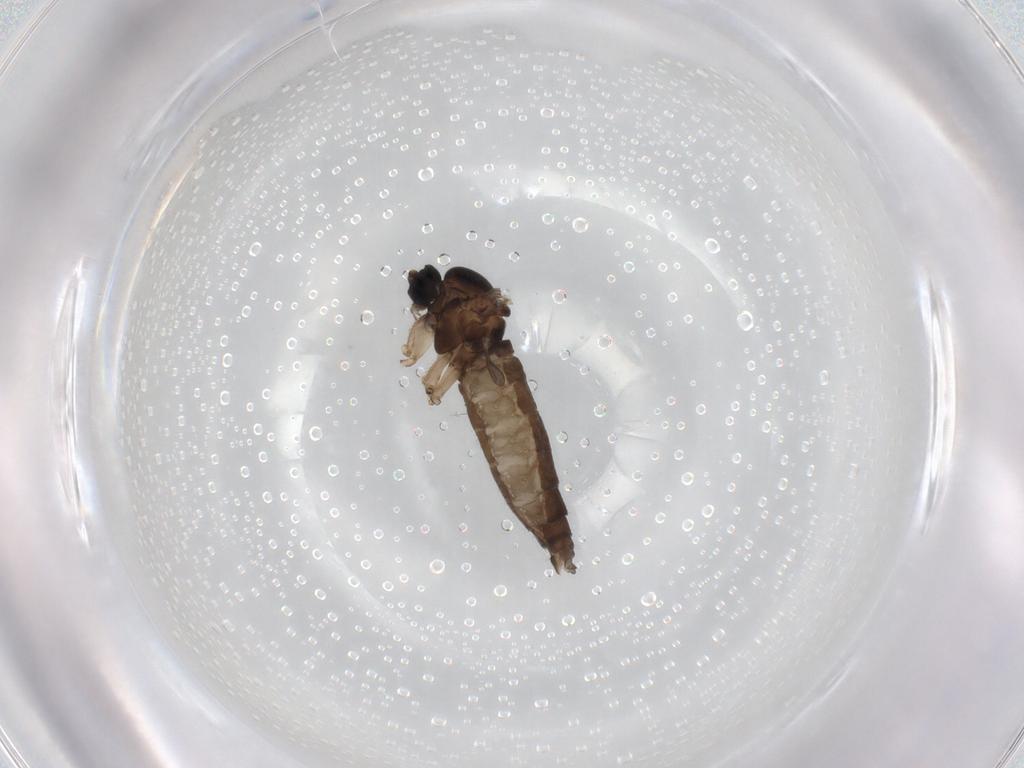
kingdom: Animalia
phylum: Arthropoda
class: Insecta
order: Diptera
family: Sciaridae
